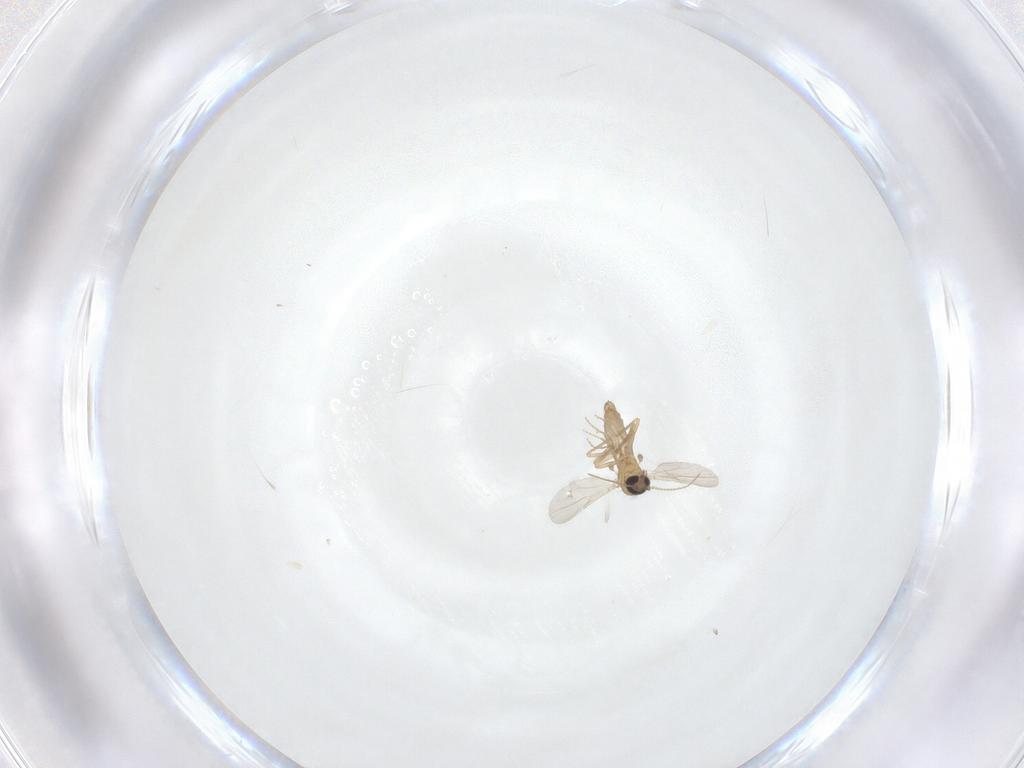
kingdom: Animalia
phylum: Arthropoda
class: Insecta
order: Diptera
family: Ceratopogonidae
